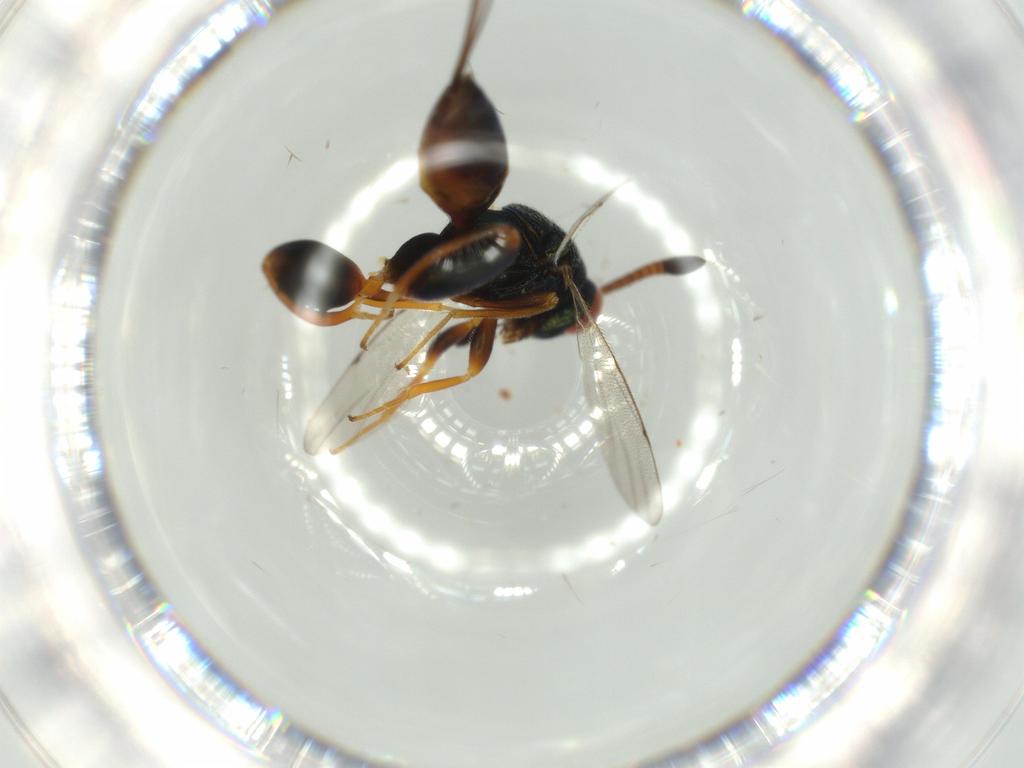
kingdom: Animalia
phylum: Arthropoda
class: Insecta
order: Hymenoptera
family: Torymidae
